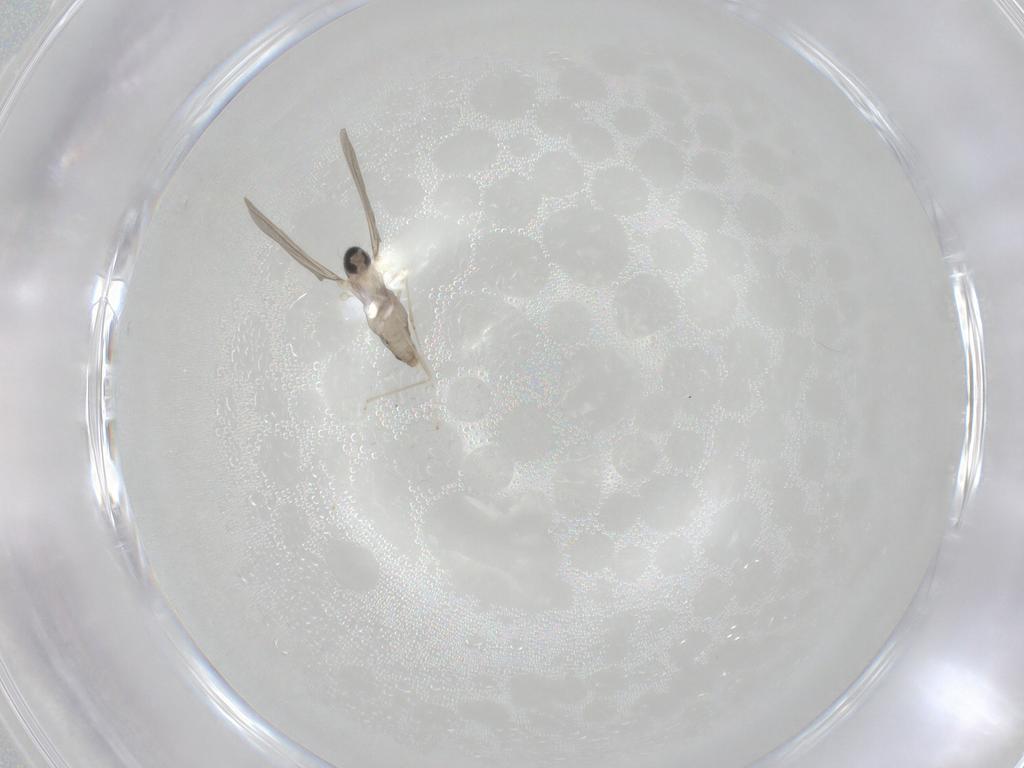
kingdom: Animalia
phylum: Arthropoda
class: Insecta
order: Diptera
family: Cecidomyiidae
